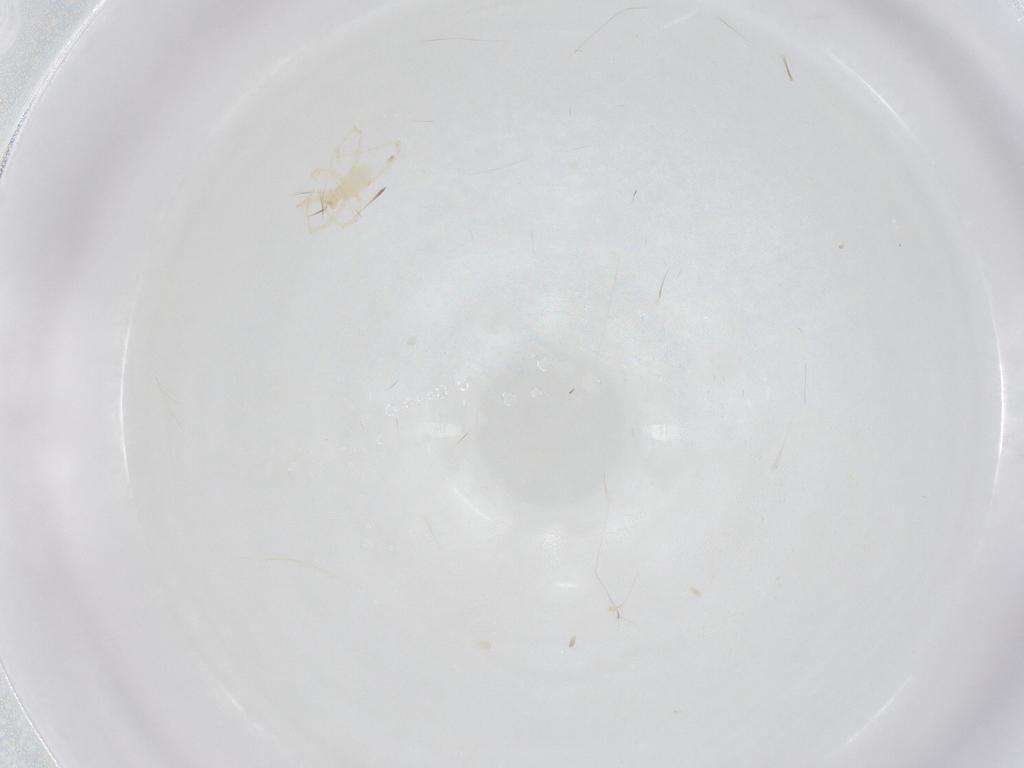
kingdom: Animalia
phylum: Arthropoda
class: Arachnida
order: Trombidiformes
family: Erythraeidae
